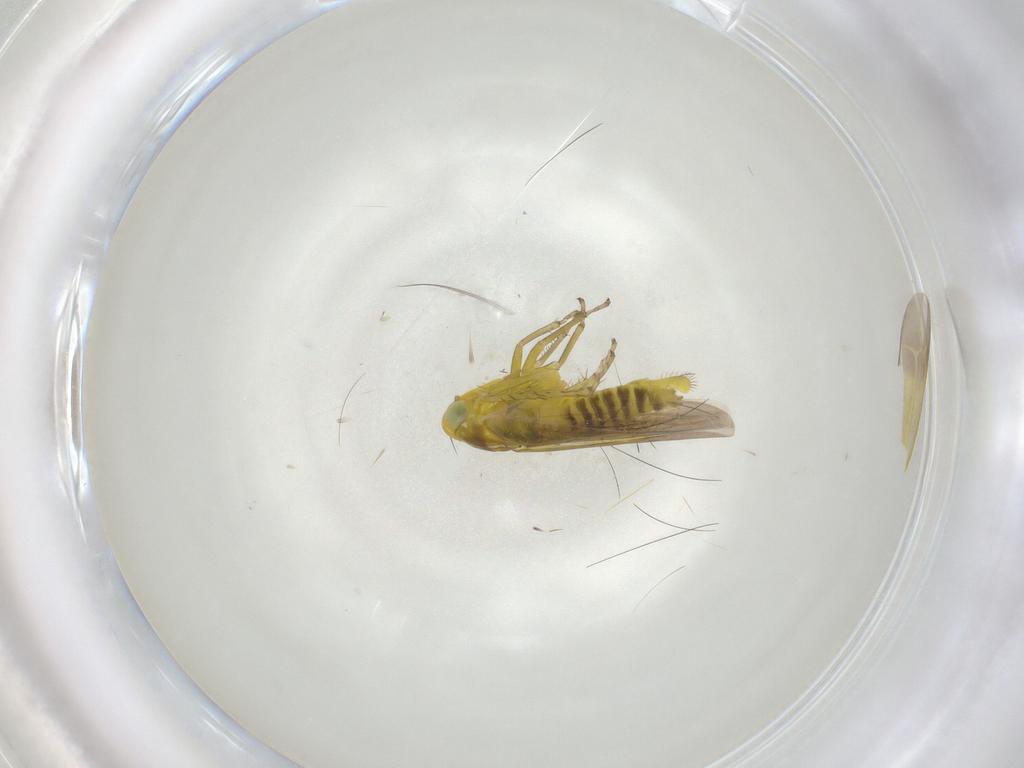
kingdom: Animalia
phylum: Arthropoda
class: Insecta
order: Hemiptera
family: Cicadellidae
